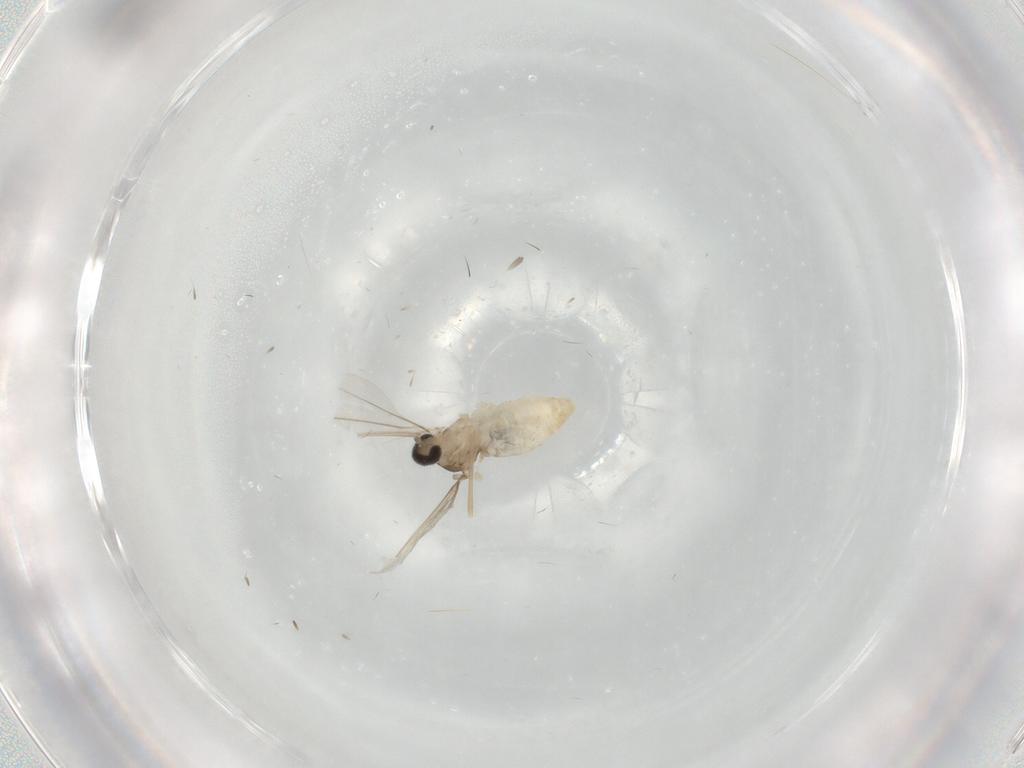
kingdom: Animalia
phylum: Arthropoda
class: Insecta
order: Diptera
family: Cecidomyiidae
